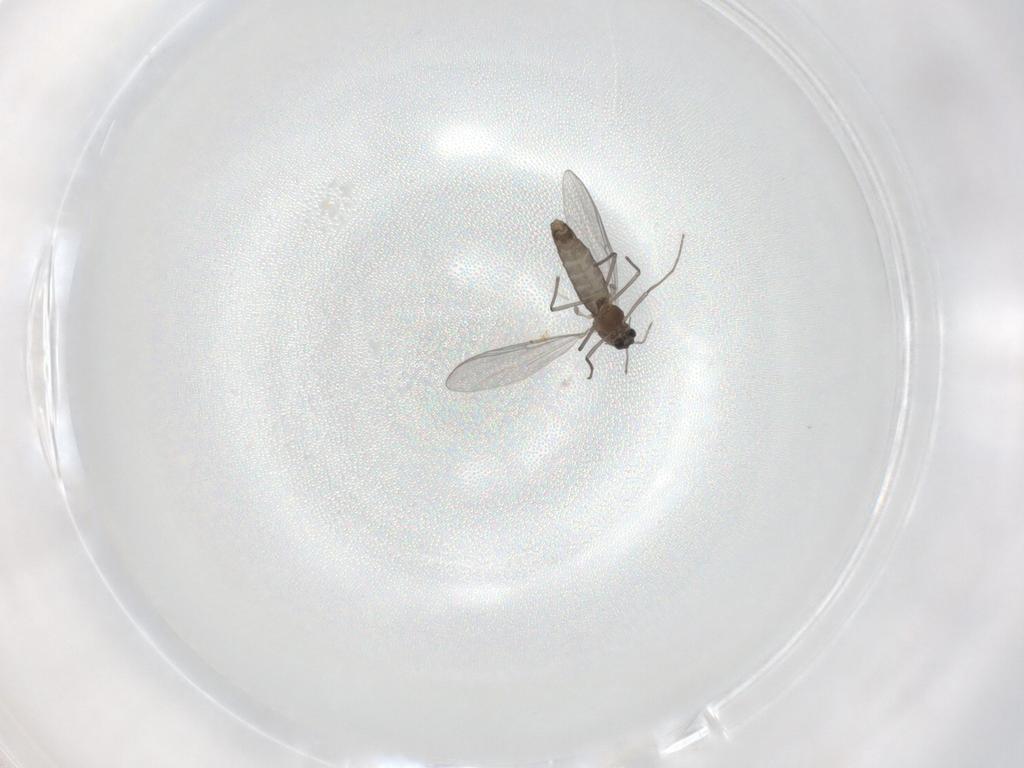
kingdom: Animalia
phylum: Arthropoda
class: Insecta
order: Diptera
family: Chironomidae
